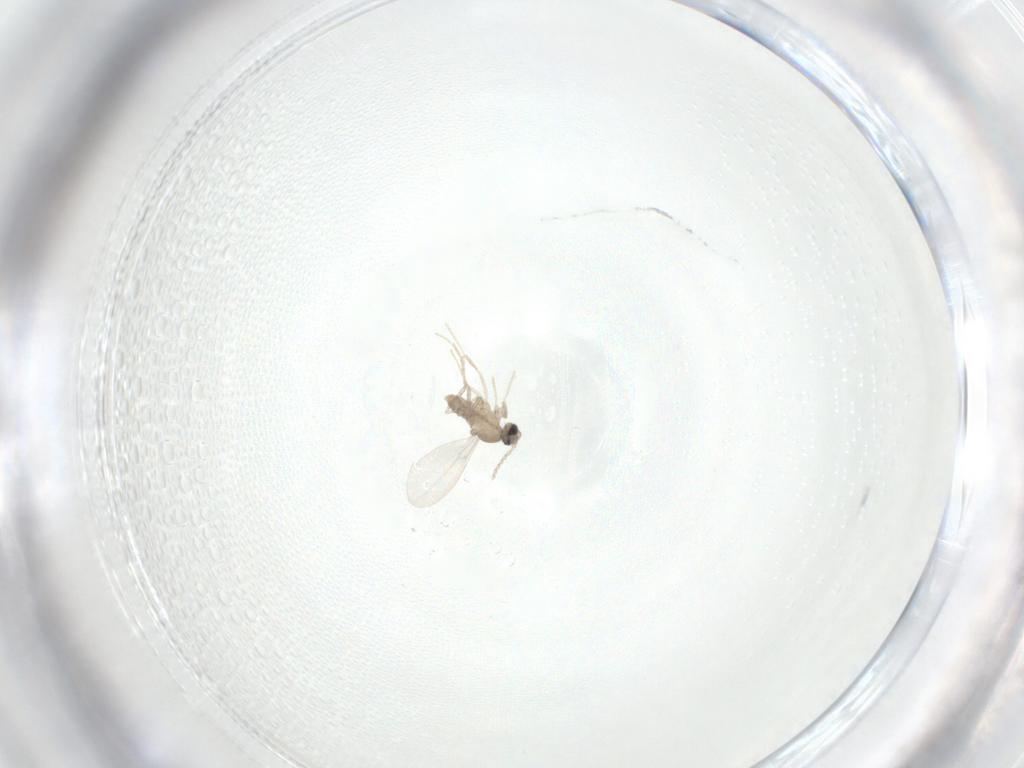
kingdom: Animalia
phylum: Arthropoda
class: Insecta
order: Diptera
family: Cecidomyiidae
